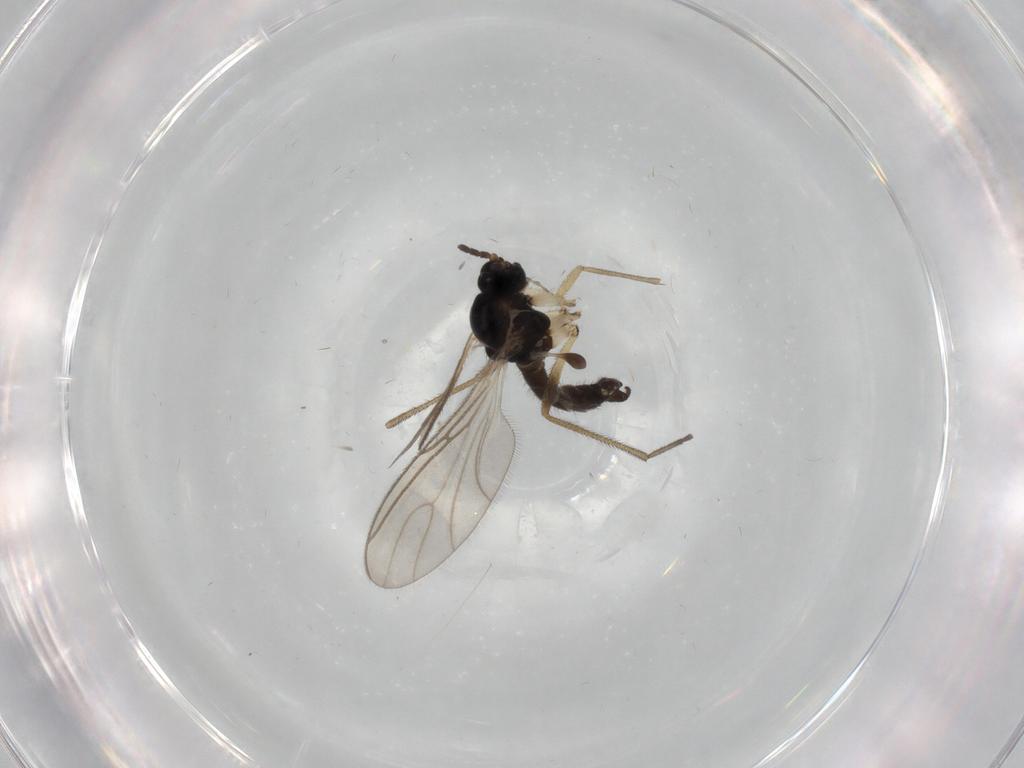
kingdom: Animalia
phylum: Arthropoda
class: Insecta
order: Diptera
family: Sciaridae
